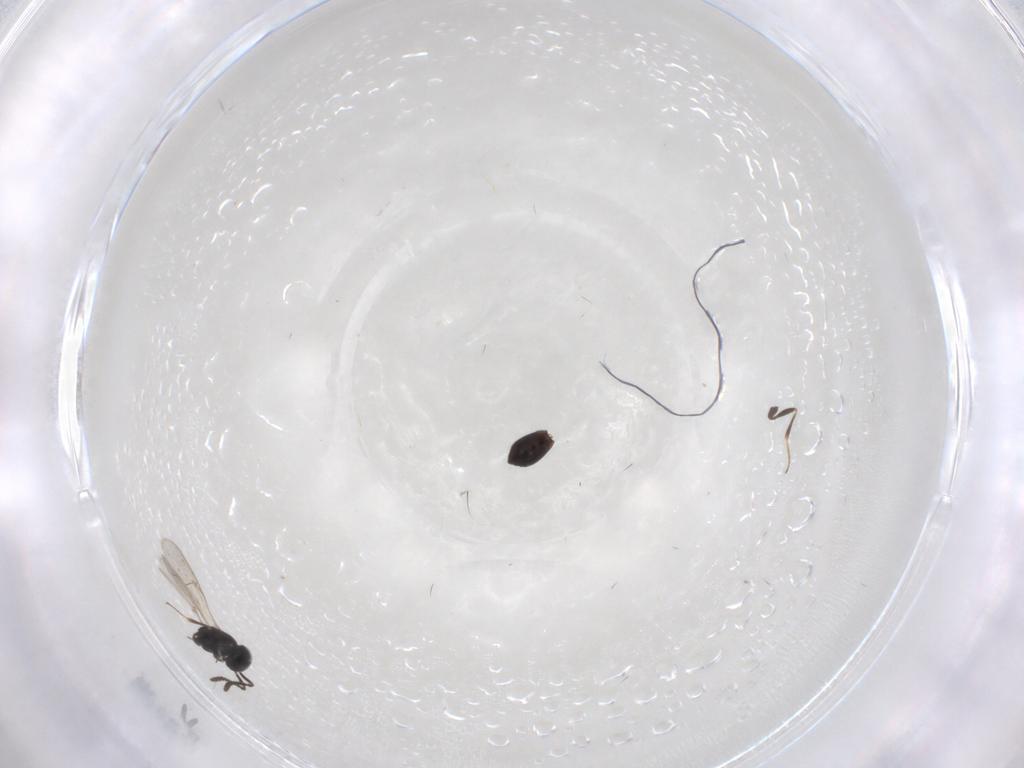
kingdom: Animalia
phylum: Arthropoda
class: Insecta
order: Hymenoptera
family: Scelionidae
